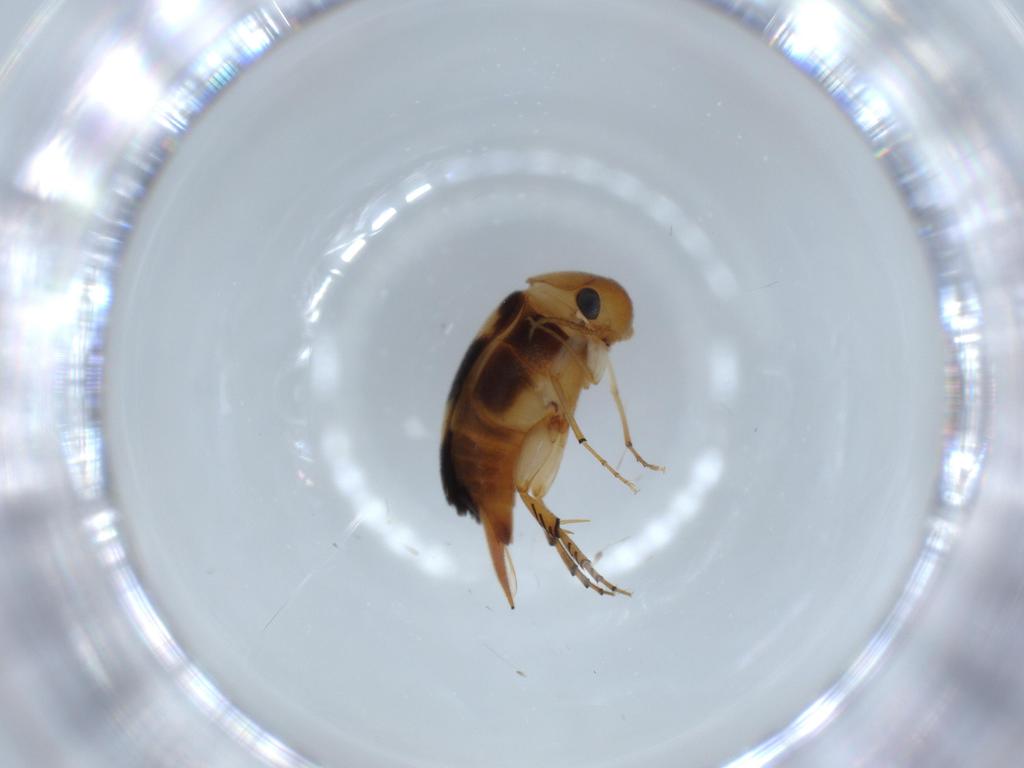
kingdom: Animalia
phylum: Arthropoda
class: Insecta
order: Coleoptera
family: Mordellidae
